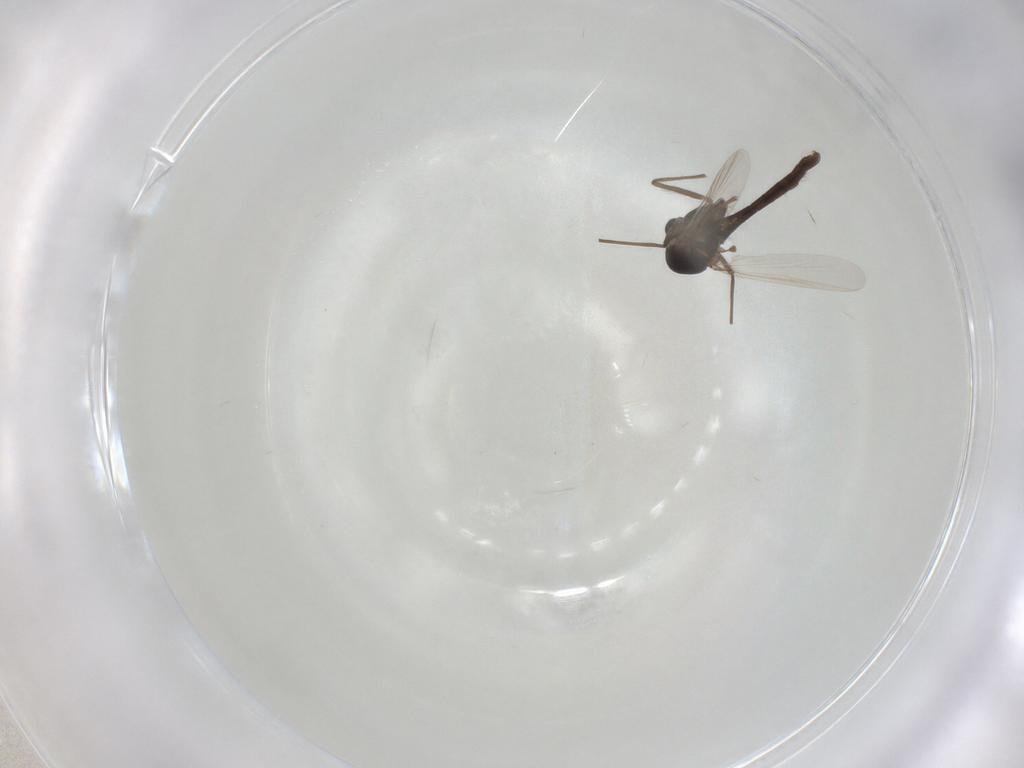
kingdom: Animalia
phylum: Arthropoda
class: Insecta
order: Diptera
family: Chironomidae
